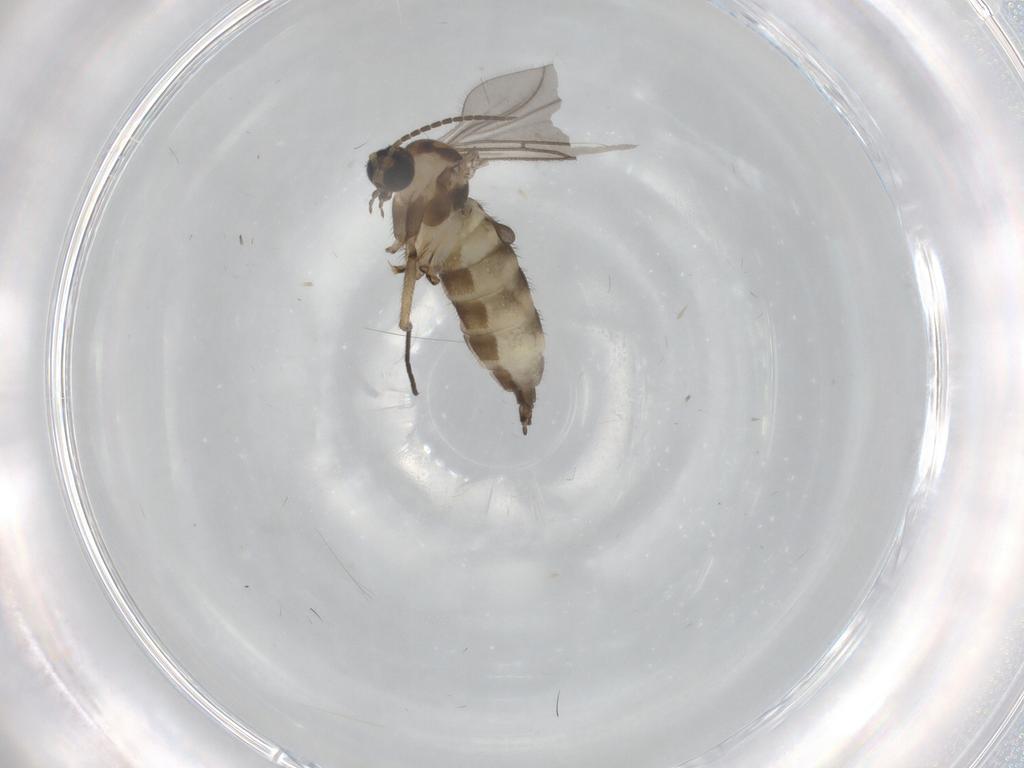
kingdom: Animalia
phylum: Arthropoda
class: Insecta
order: Diptera
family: Sciaridae
